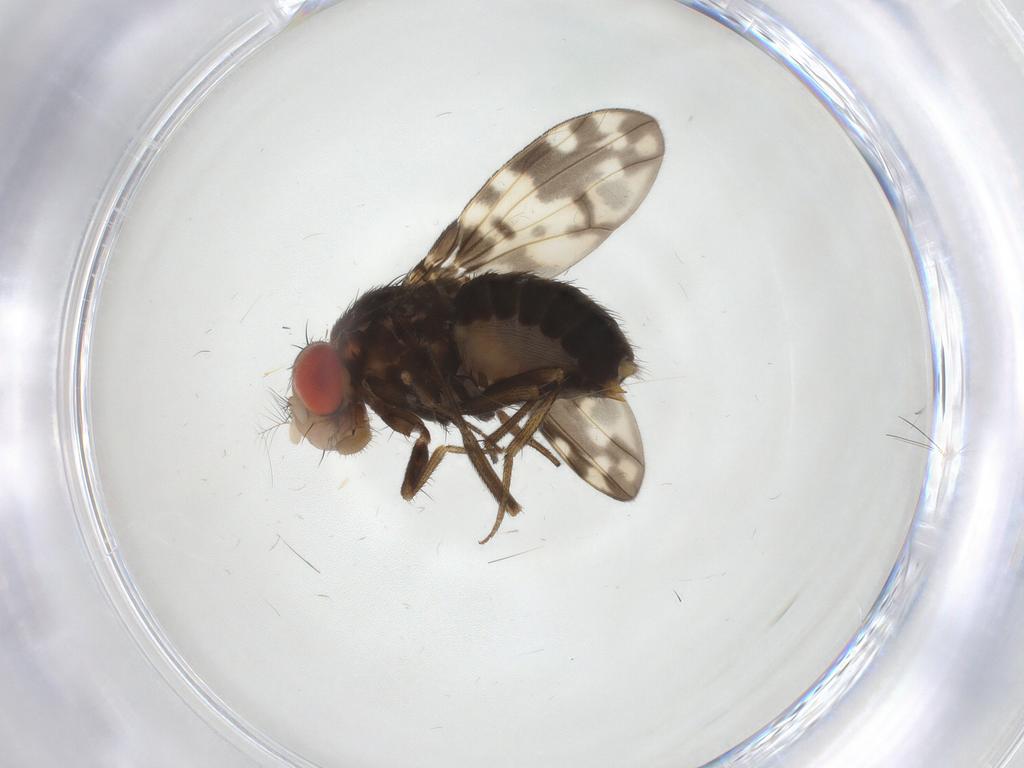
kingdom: Animalia
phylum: Arthropoda
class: Insecta
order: Diptera
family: Drosophilidae
